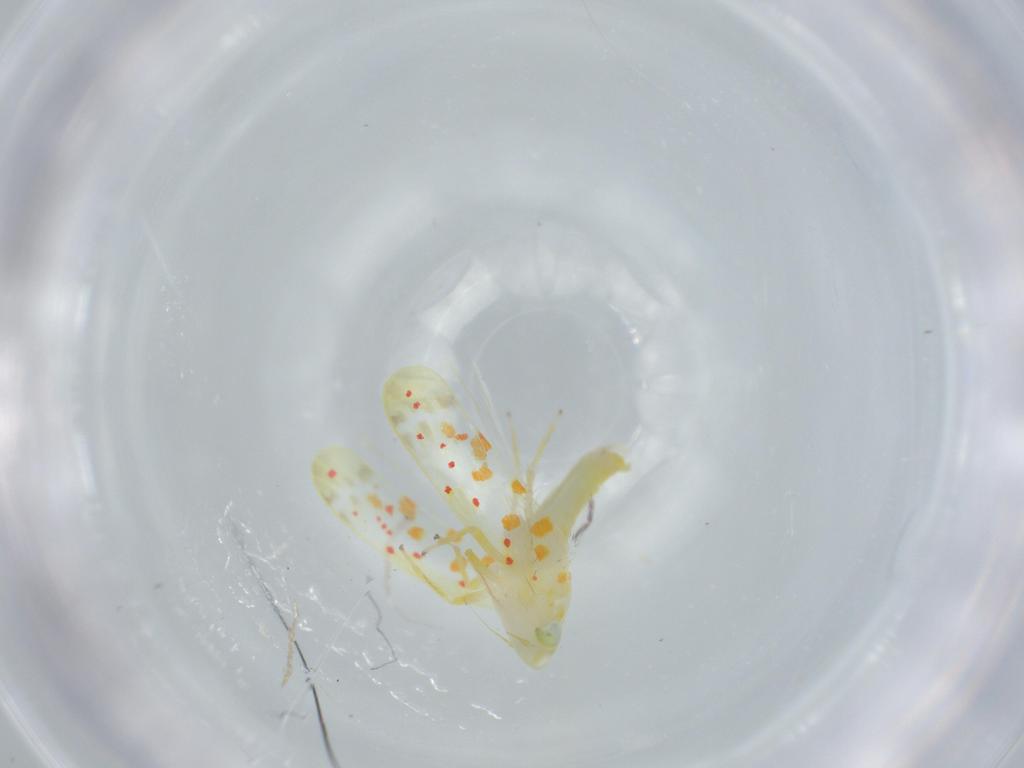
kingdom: Animalia
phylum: Arthropoda
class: Insecta
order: Hemiptera
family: Cicadellidae
